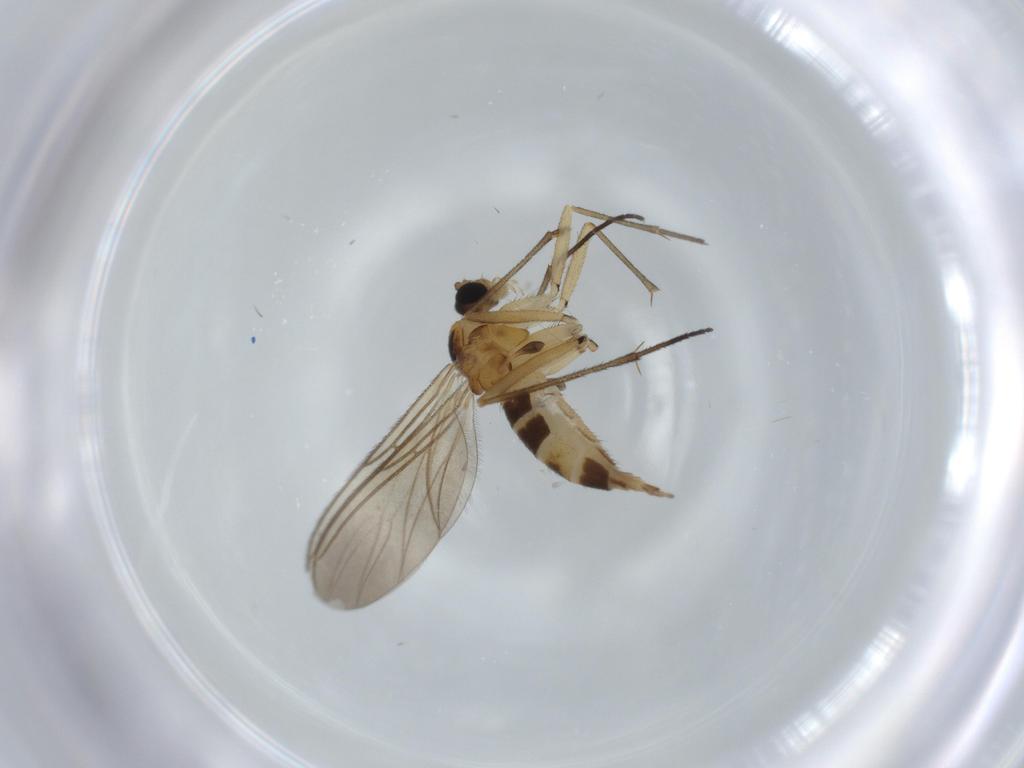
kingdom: Animalia
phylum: Arthropoda
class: Insecta
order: Diptera
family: Sciaridae
